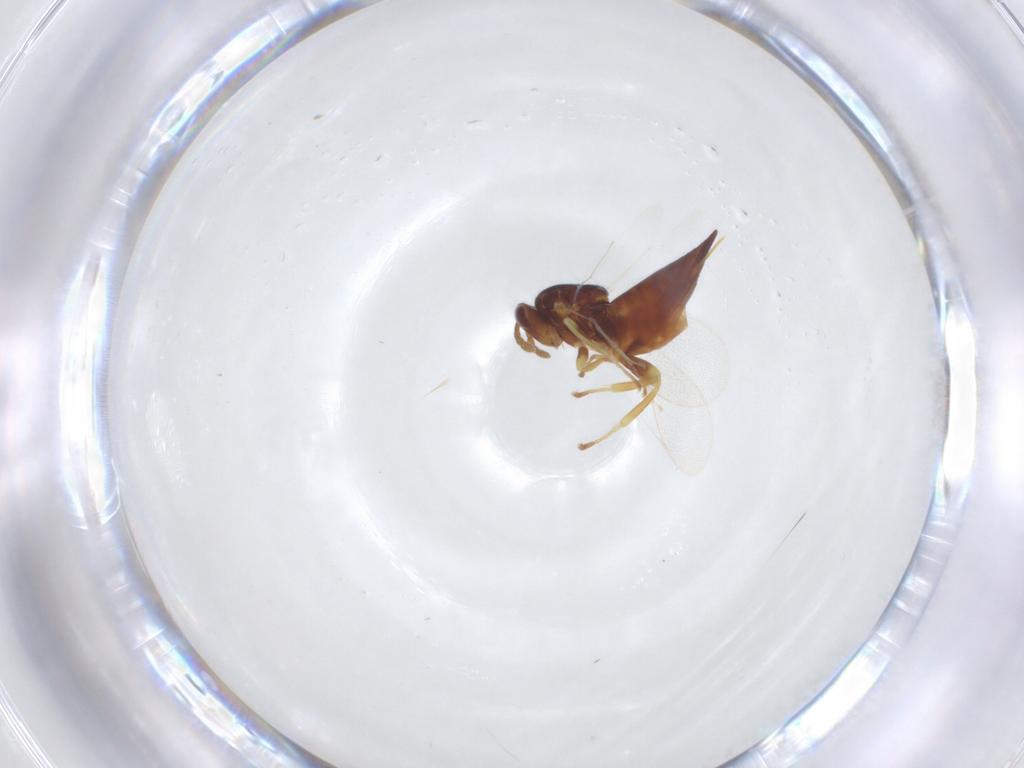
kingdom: Animalia
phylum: Arthropoda
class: Insecta
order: Hymenoptera
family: Eulophidae
